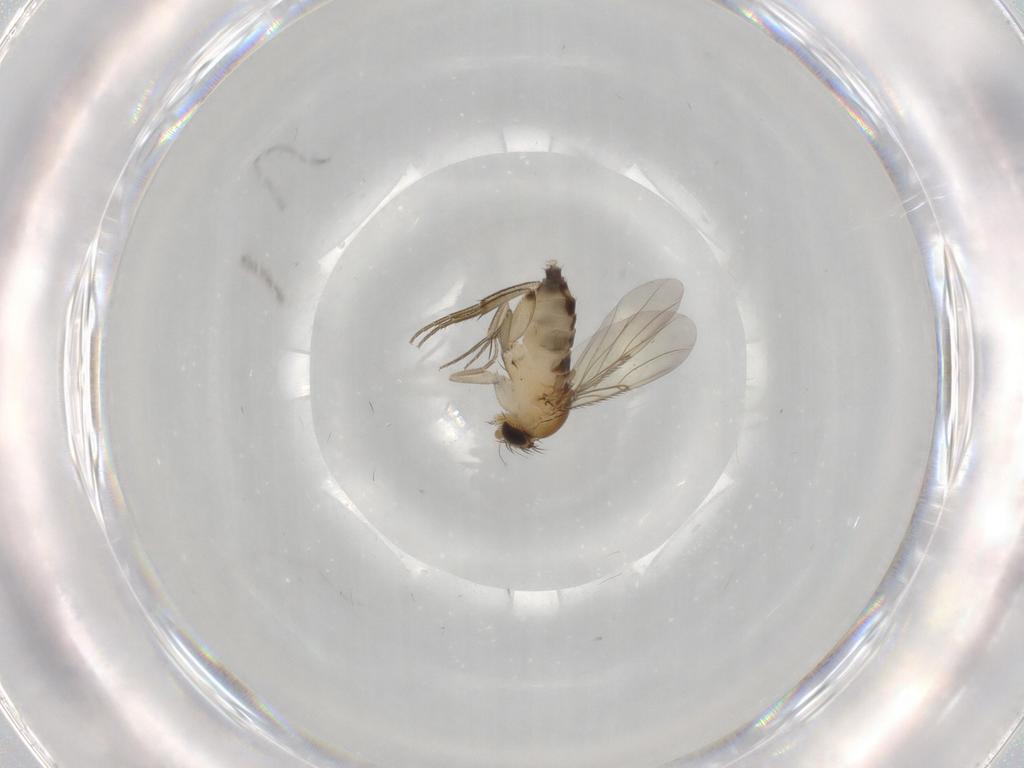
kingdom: Animalia
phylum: Arthropoda
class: Insecta
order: Diptera
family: Phoridae
